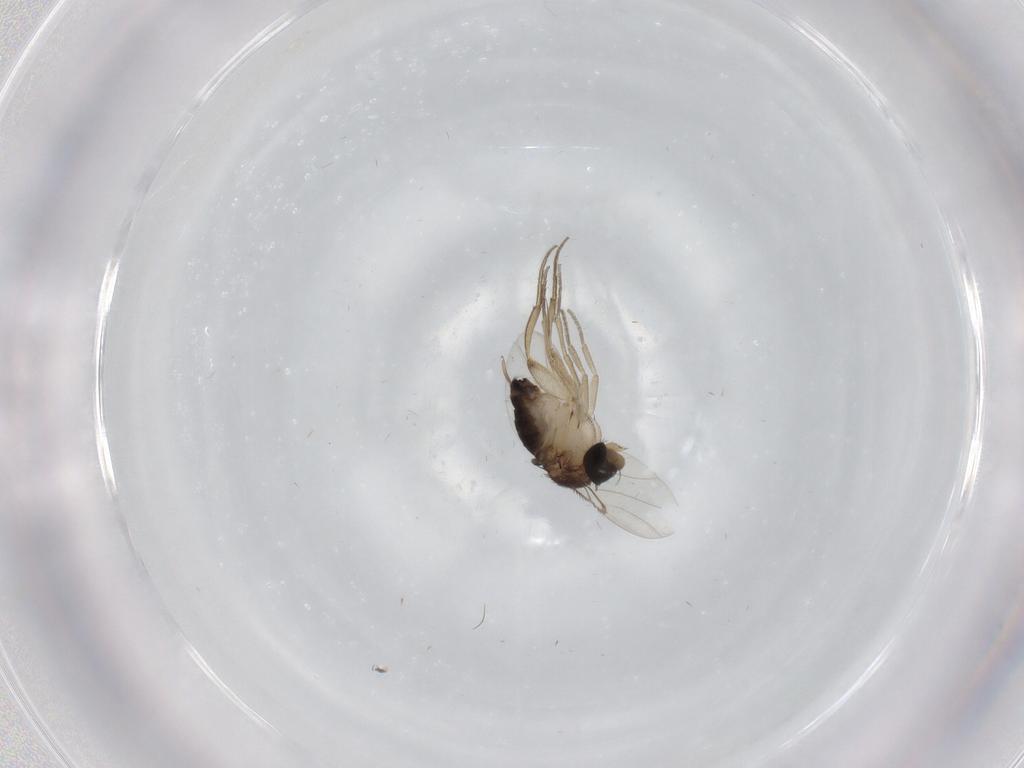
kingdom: Animalia
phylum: Arthropoda
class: Insecta
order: Diptera
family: Phoridae
